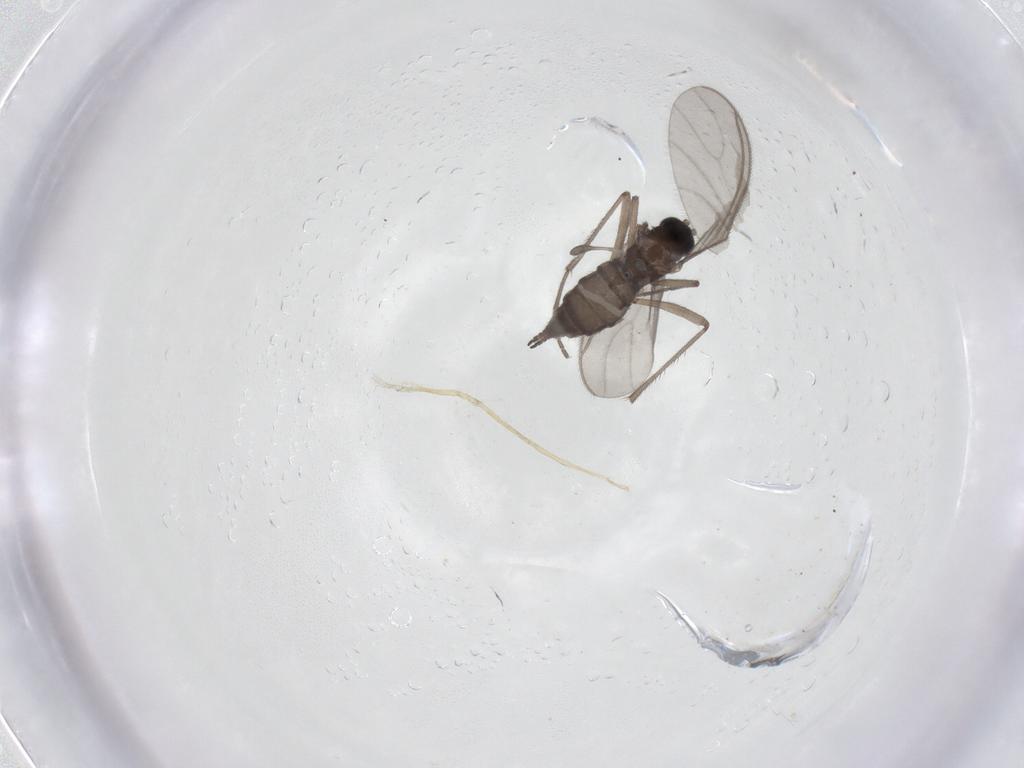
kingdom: Animalia
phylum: Arthropoda
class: Insecta
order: Diptera
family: Sciaridae
